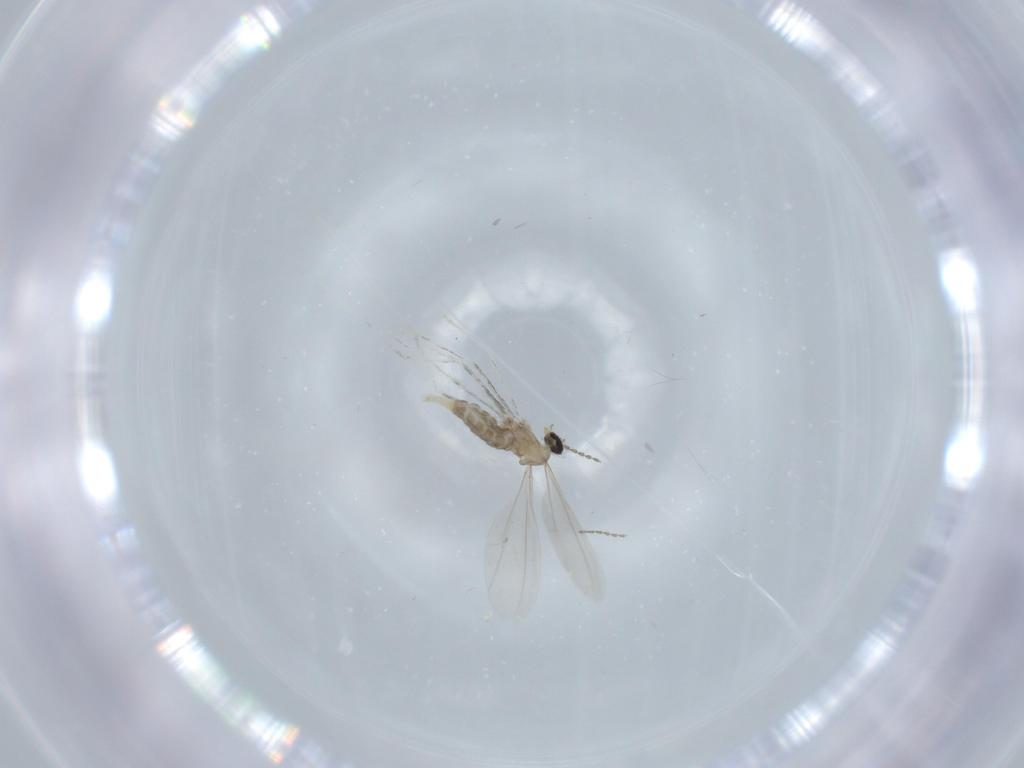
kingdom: Animalia
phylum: Arthropoda
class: Insecta
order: Diptera
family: Cecidomyiidae
